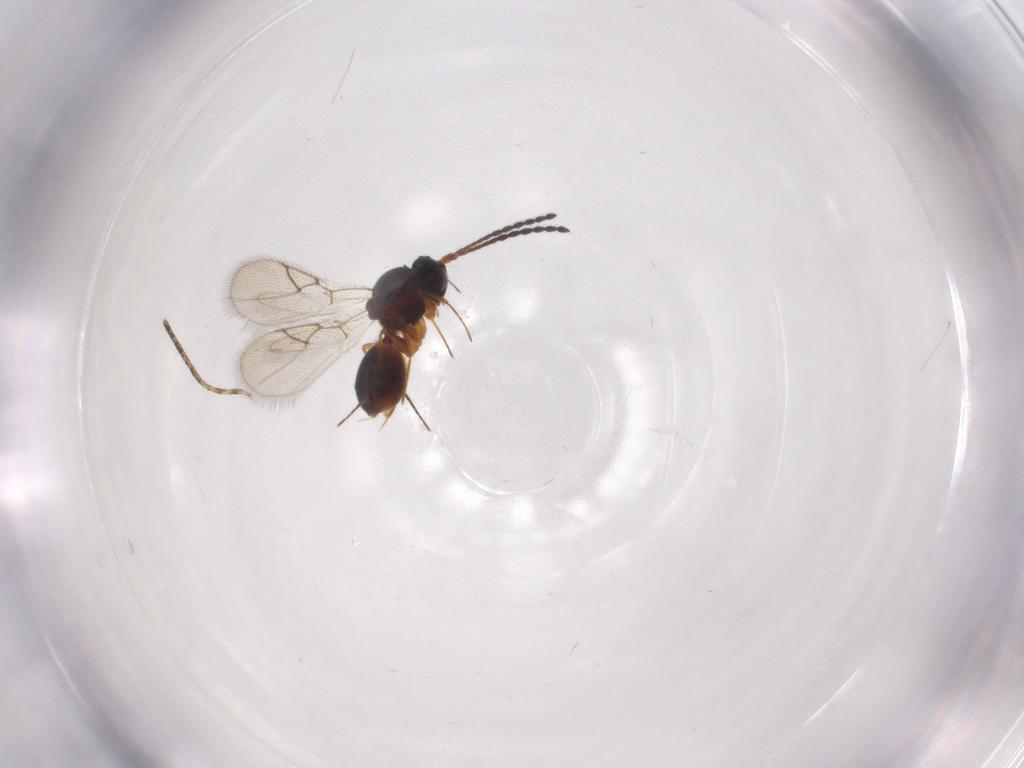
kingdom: Animalia
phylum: Arthropoda
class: Insecta
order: Hymenoptera
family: Figitidae
